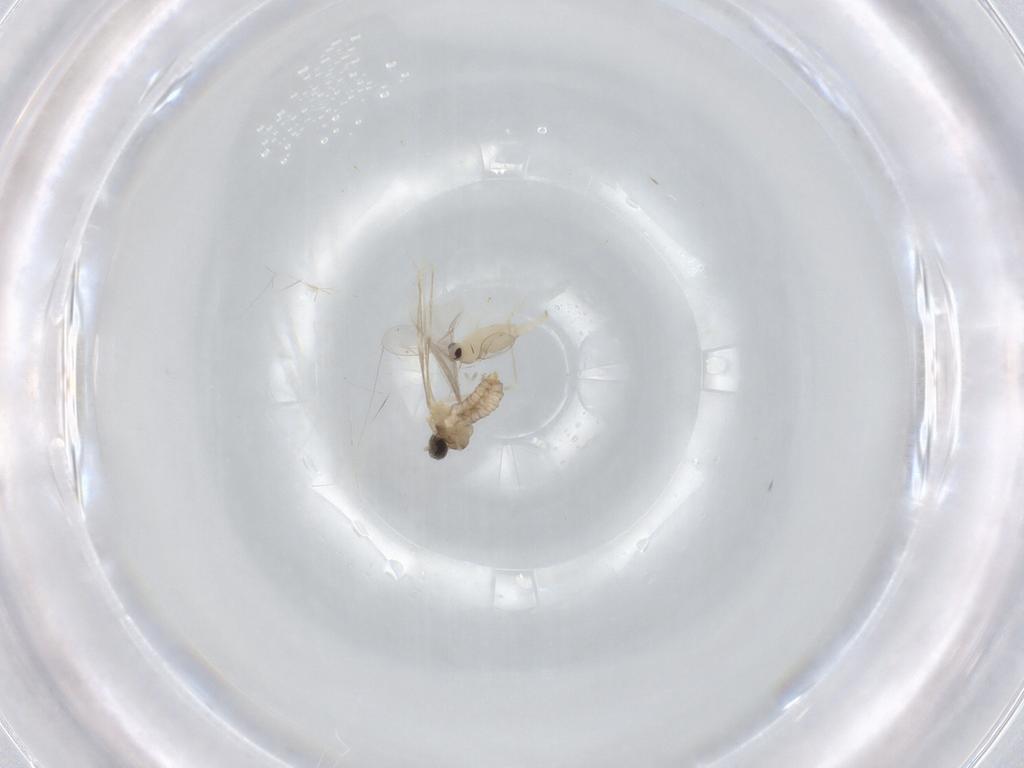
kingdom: Animalia
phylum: Arthropoda
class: Insecta
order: Diptera
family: Cecidomyiidae
